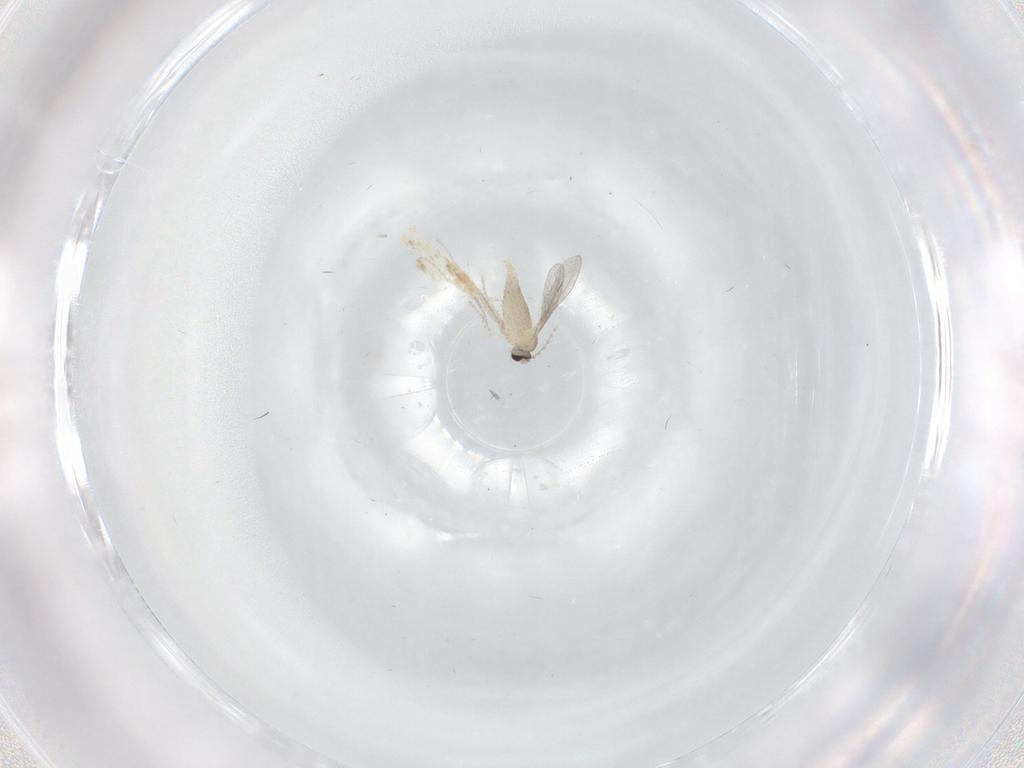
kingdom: Animalia
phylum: Arthropoda
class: Insecta
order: Diptera
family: Cecidomyiidae
